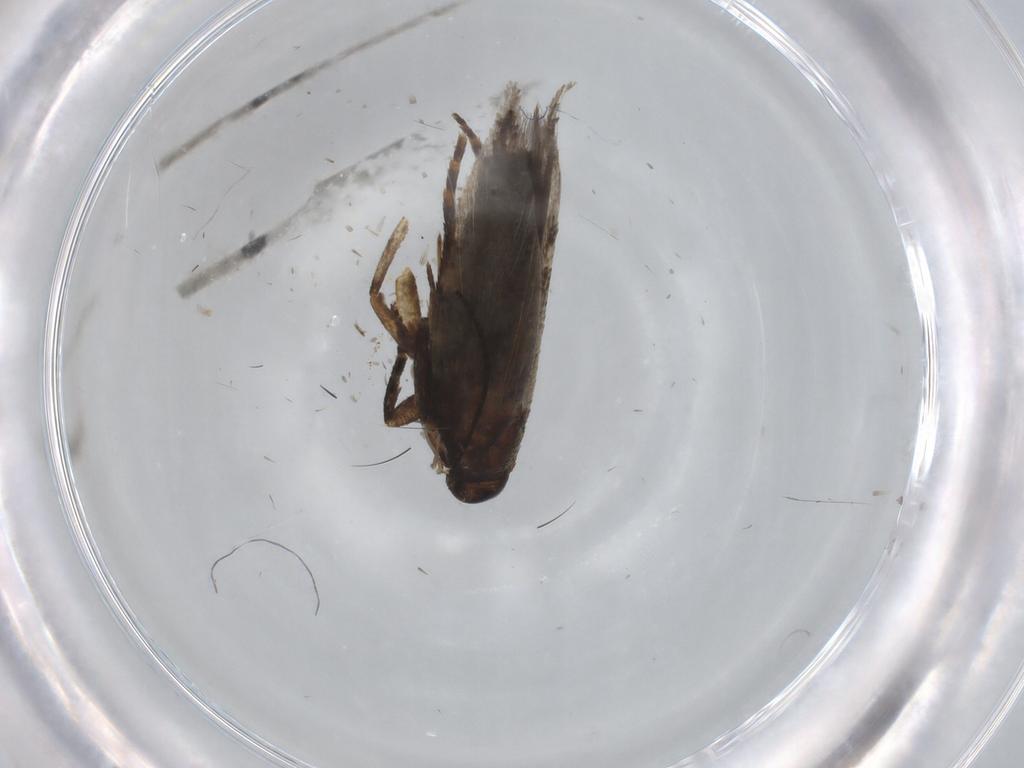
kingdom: Animalia
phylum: Arthropoda
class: Insecta
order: Lepidoptera
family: Gelechiidae
